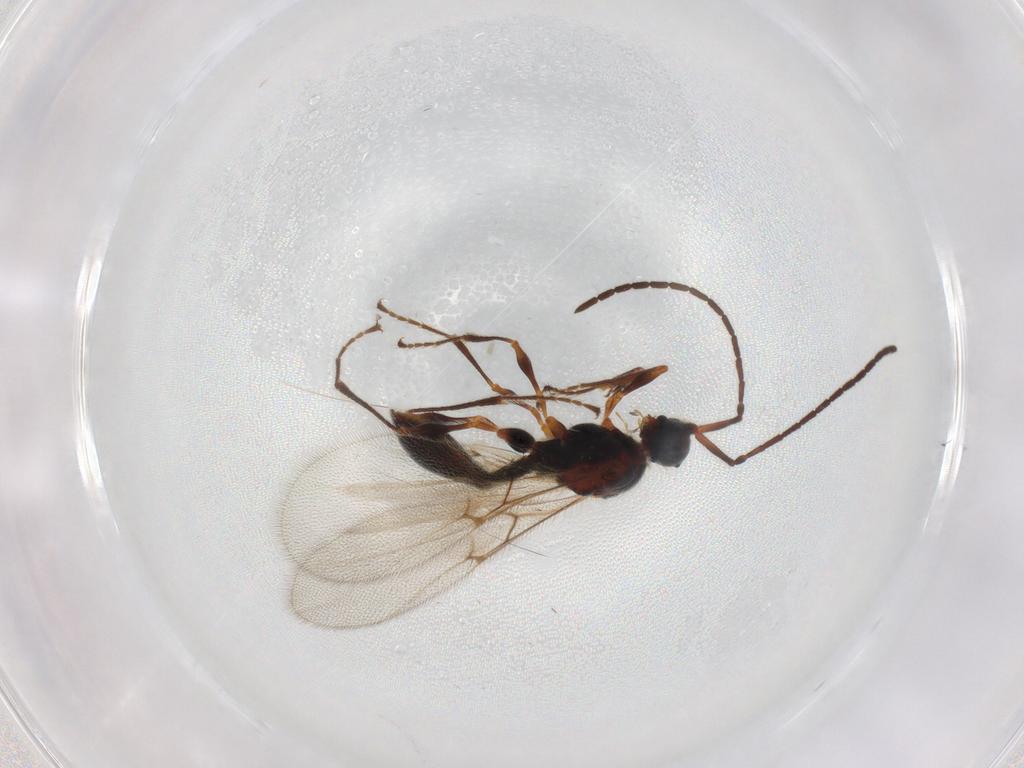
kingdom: Animalia
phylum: Arthropoda
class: Insecta
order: Hymenoptera
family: Diapriidae
